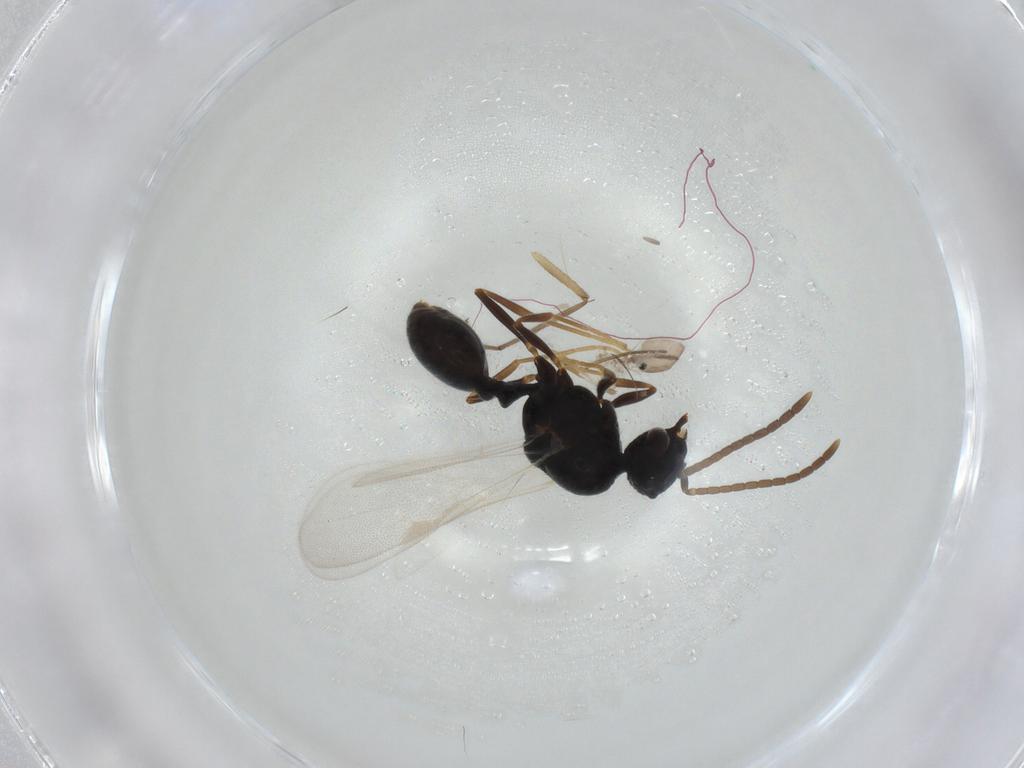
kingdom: Animalia
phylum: Arthropoda
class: Insecta
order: Hymenoptera
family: Formicidae
